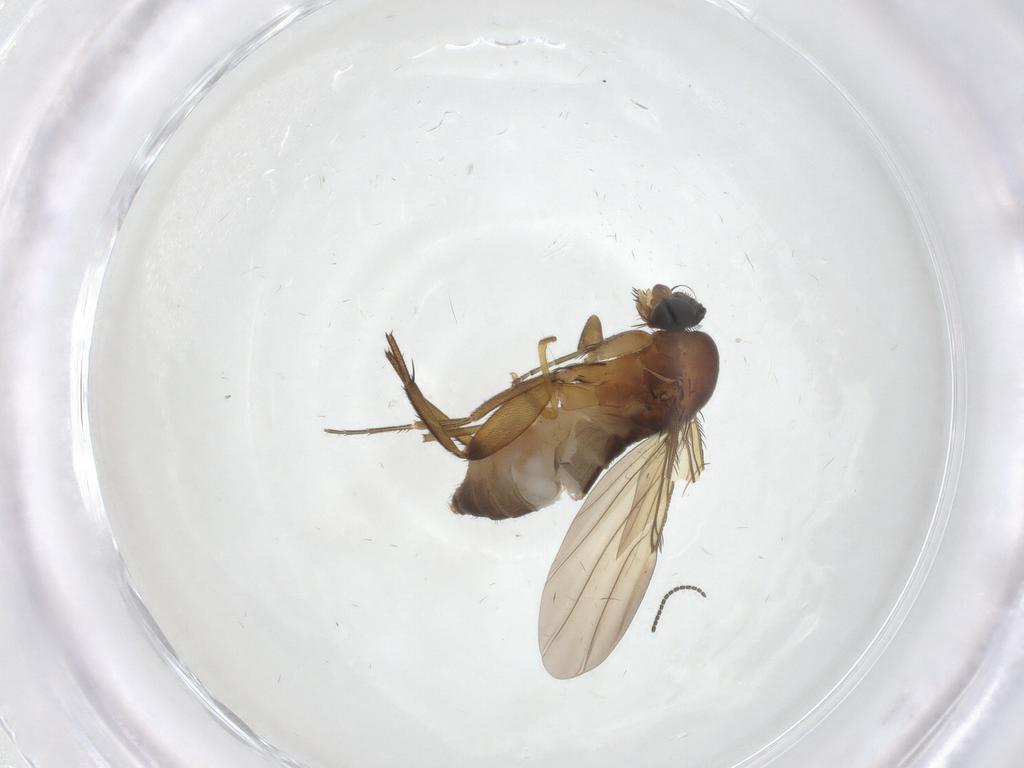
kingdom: Animalia
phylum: Arthropoda
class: Insecta
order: Diptera
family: Phoridae
